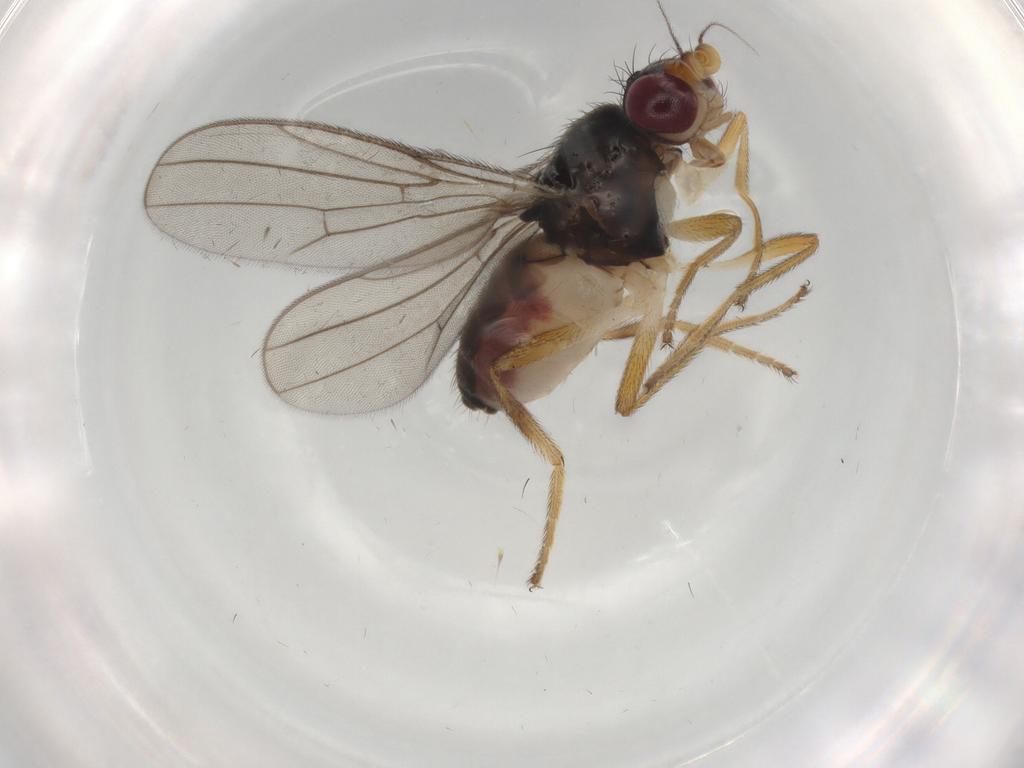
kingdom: Animalia
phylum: Arthropoda
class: Insecta
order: Diptera
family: Chloropidae
